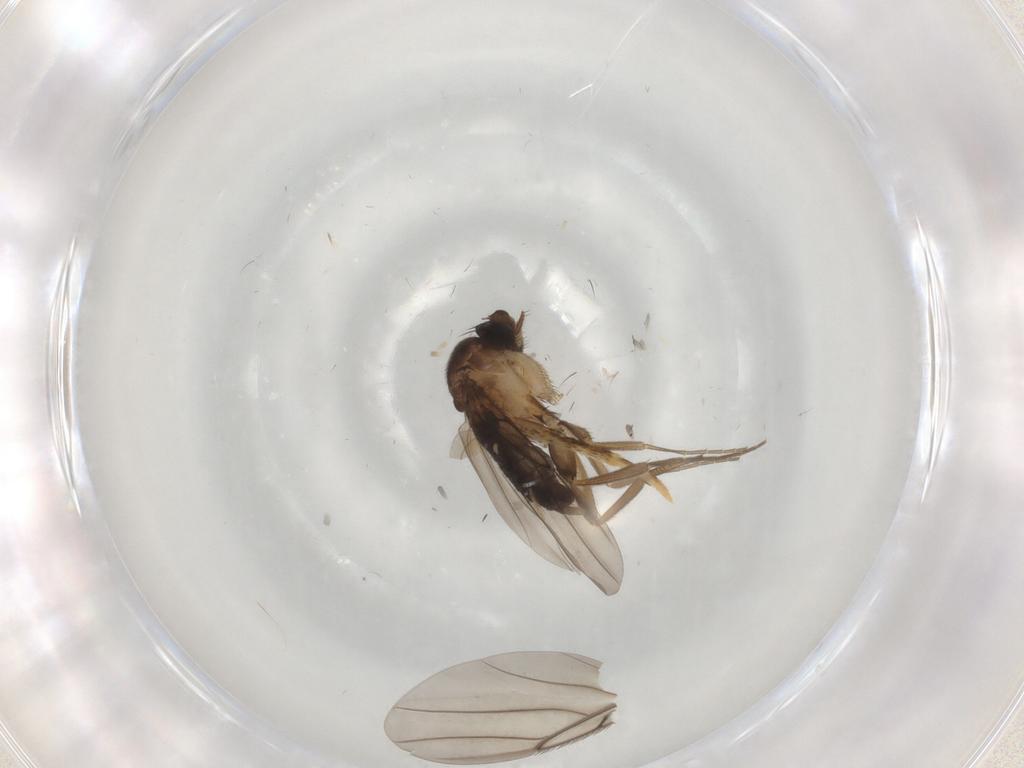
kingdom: Animalia
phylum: Arthropoda
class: Insecta
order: Diptera
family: Phoridae
